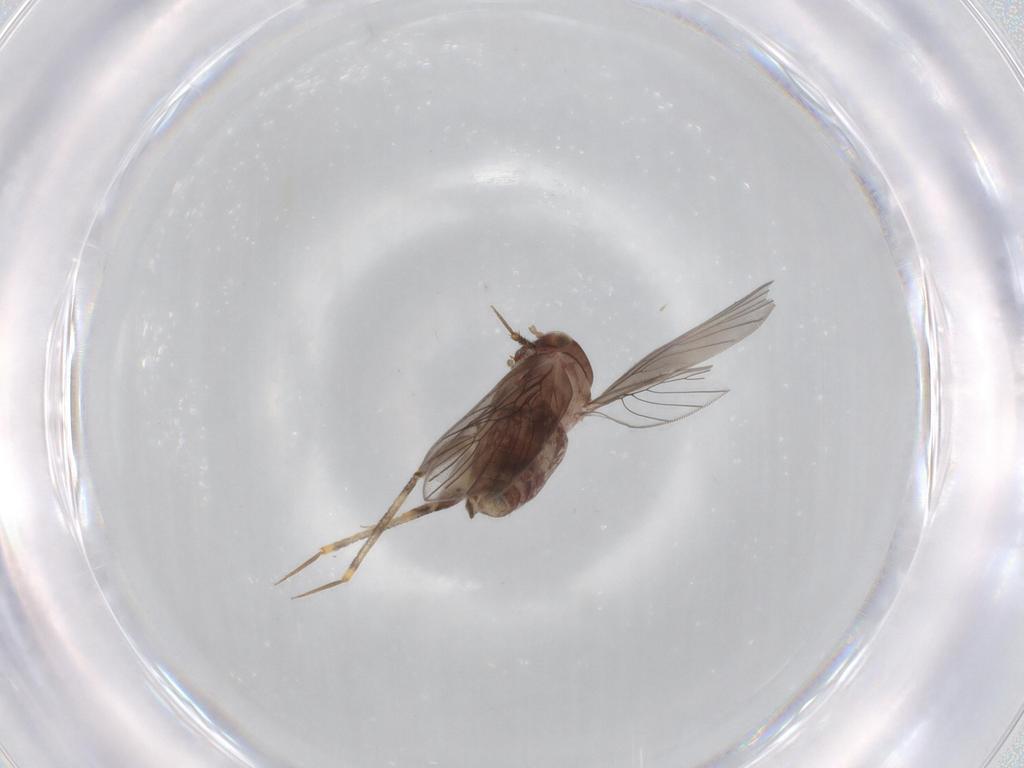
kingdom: Animalia
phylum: Arthropoda
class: Insecta
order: Psocodea
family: Lepidopsocidae
